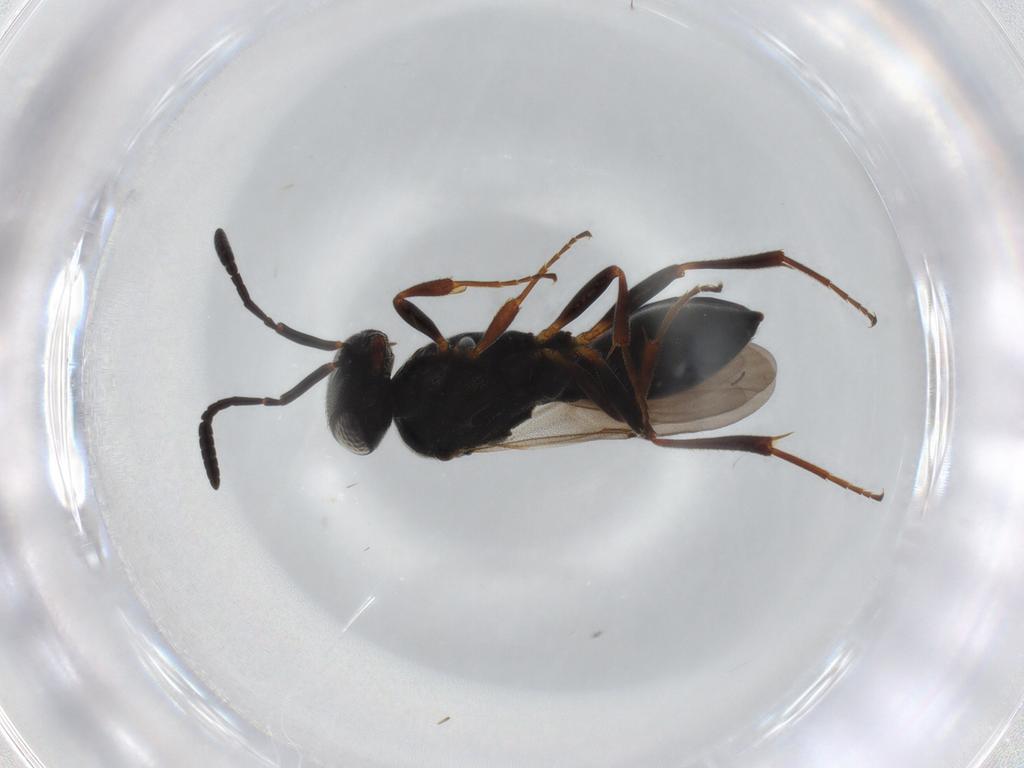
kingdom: Animalia
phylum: Arthropoda
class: Insecta
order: Hymenoptera
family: Scelionidae
